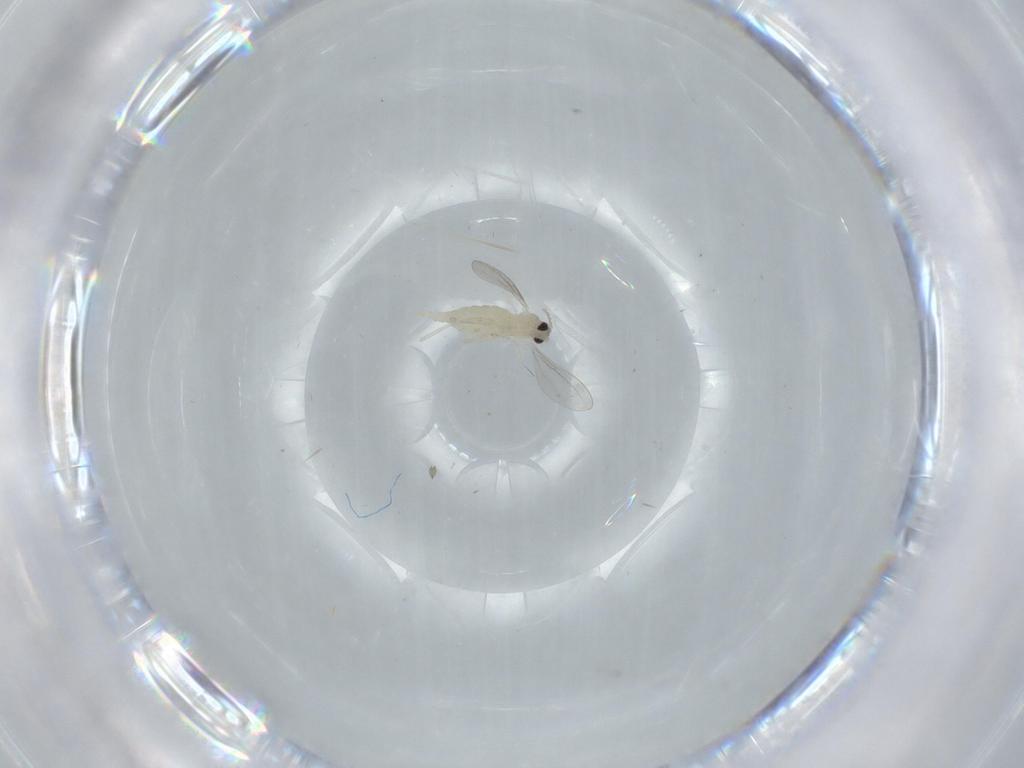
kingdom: Animalia
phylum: Arthropoda
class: Insecta
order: Diptera
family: Cecidomyiidae
